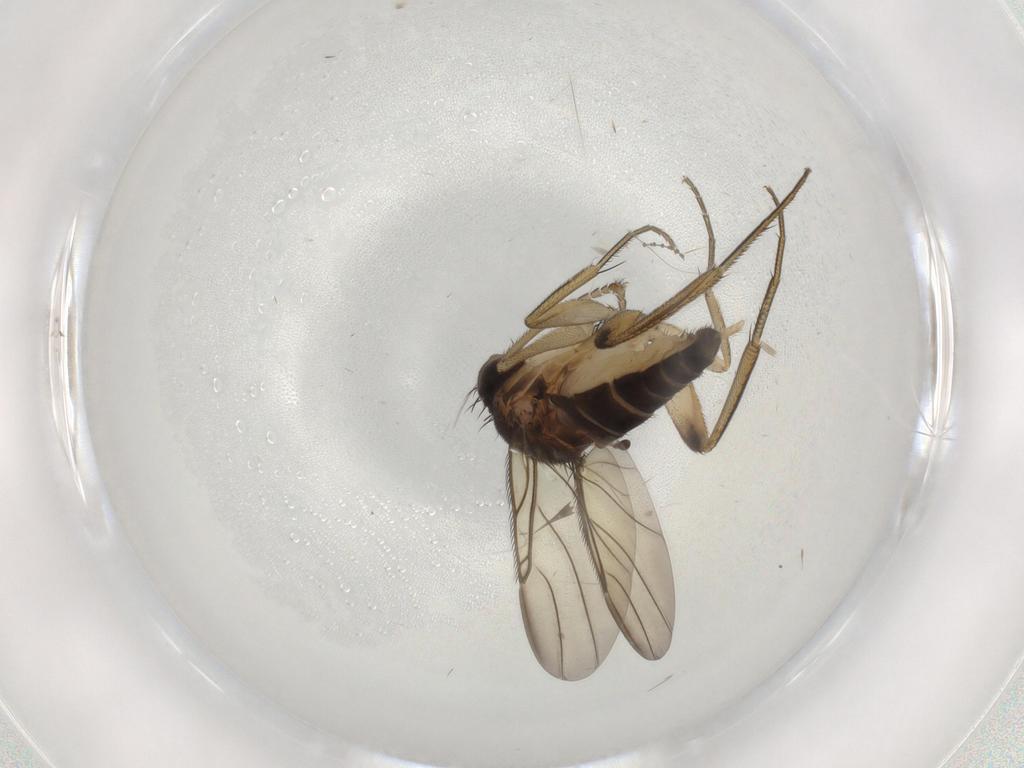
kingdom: Animalia
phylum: Arthropoda
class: Insecta
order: Diptera
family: Phoridae
